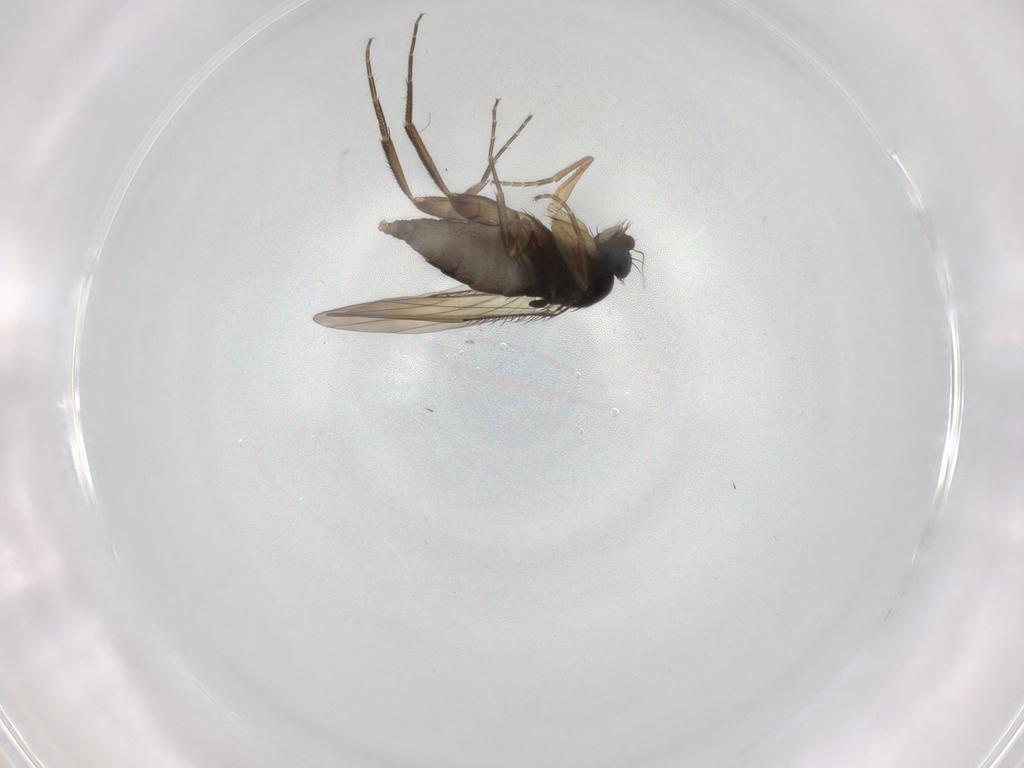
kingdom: Animalia
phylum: Arthropoda
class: Insecta
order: Diptera
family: Phoridae
